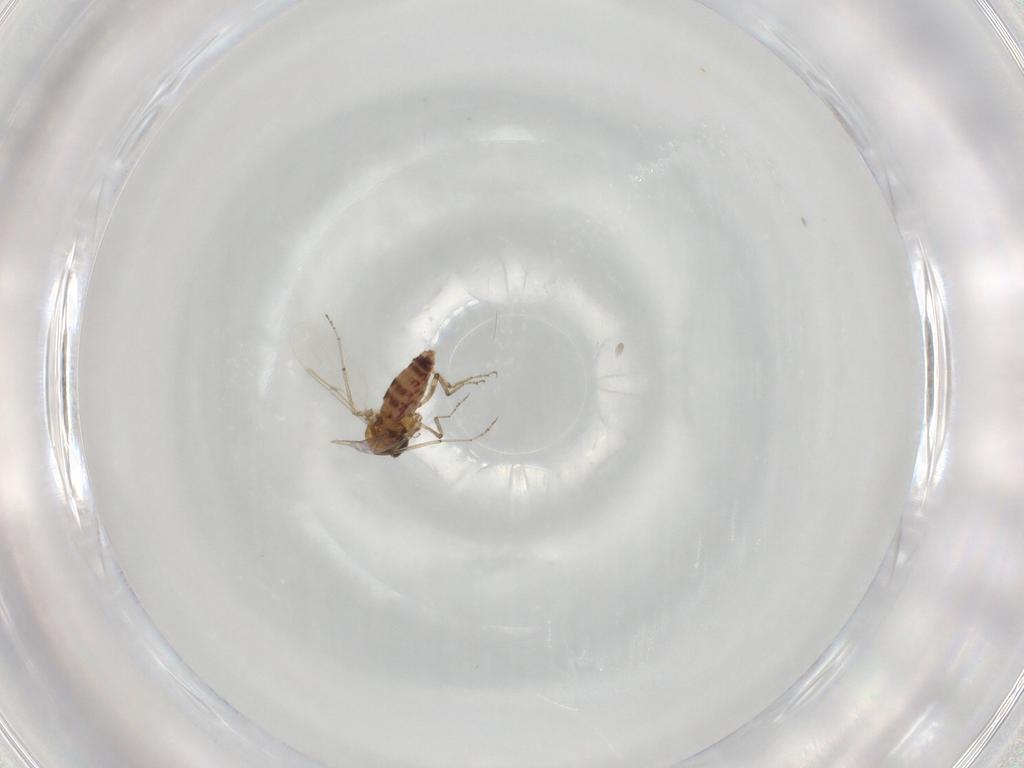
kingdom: Animalia
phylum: Arthropoda
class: Insecta
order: Diptera
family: Ceratopogonidae
